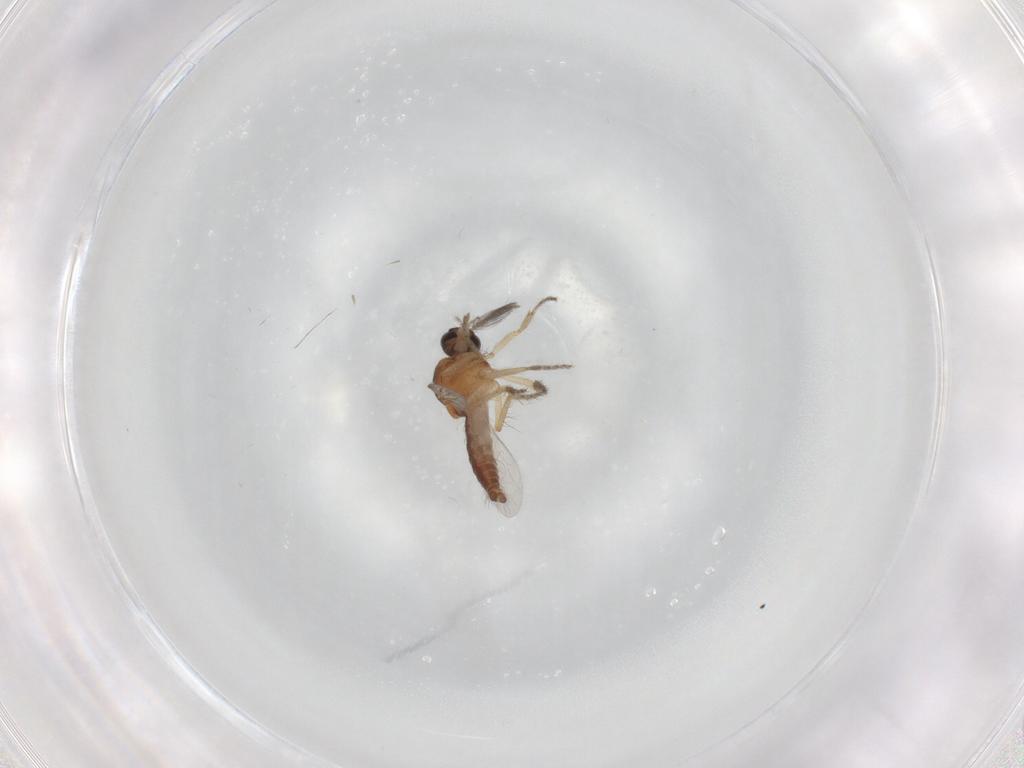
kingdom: Animalia
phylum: Arthropoda
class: Insecta
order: Diptera
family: Ceratopogonidae
